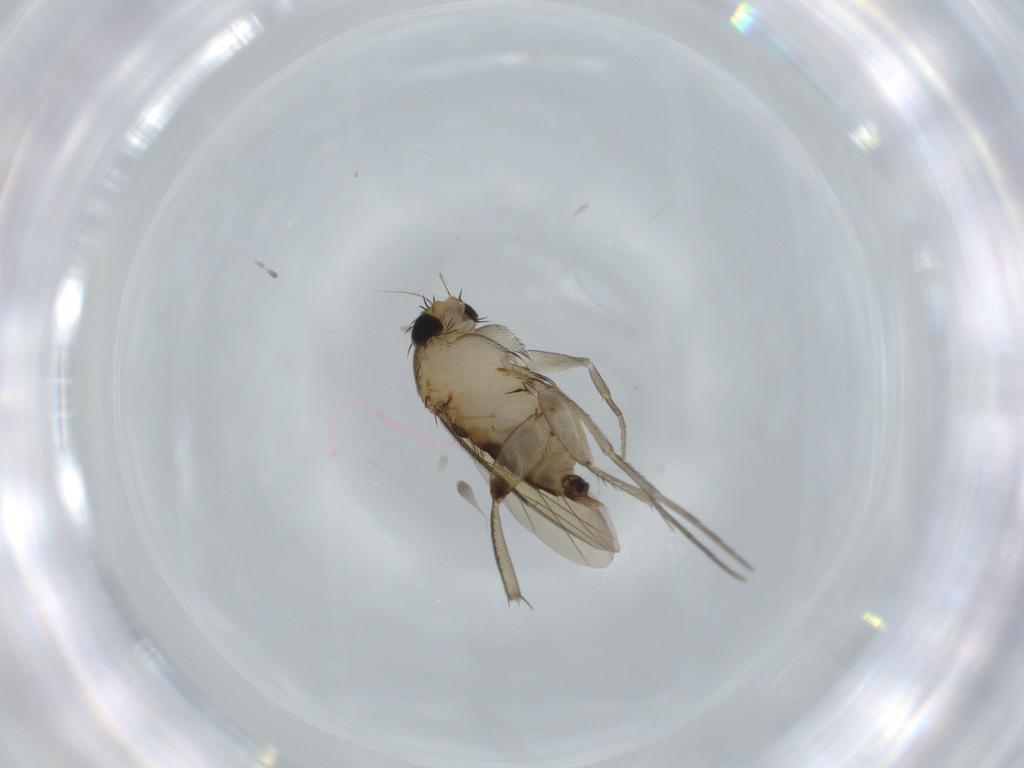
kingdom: Animalia
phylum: Arthropoda
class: Insecta
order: Diptera
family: Phoridae
